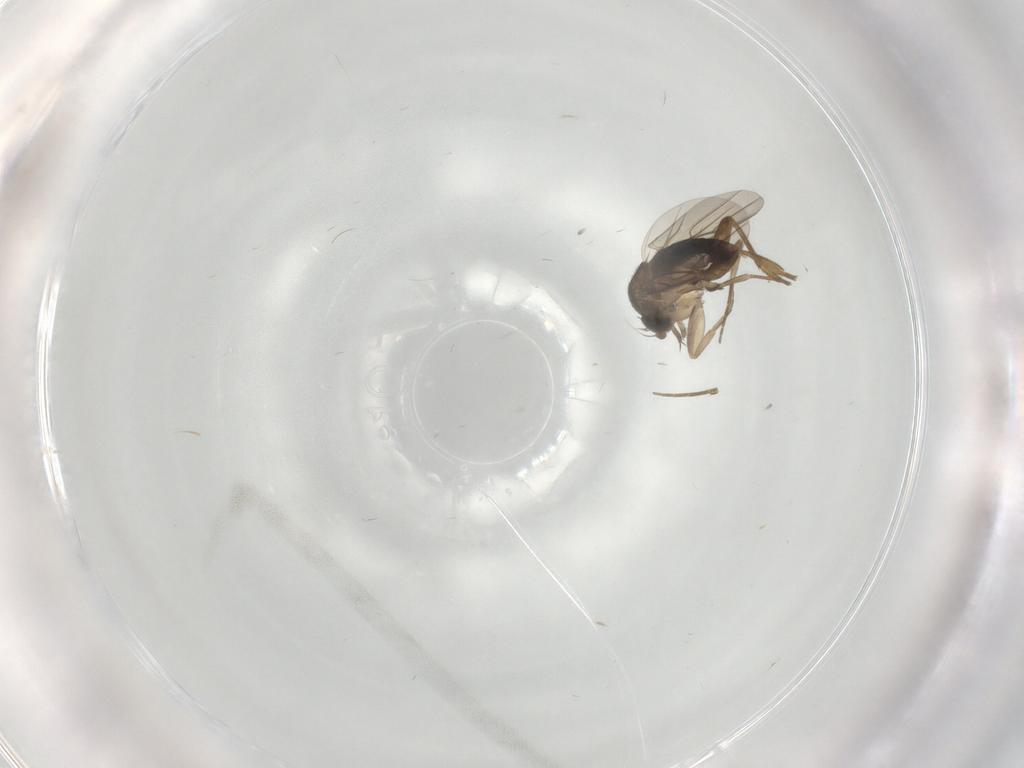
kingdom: Animalia
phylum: Arthropoda
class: Insecta
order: Diptera
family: Phoridae
